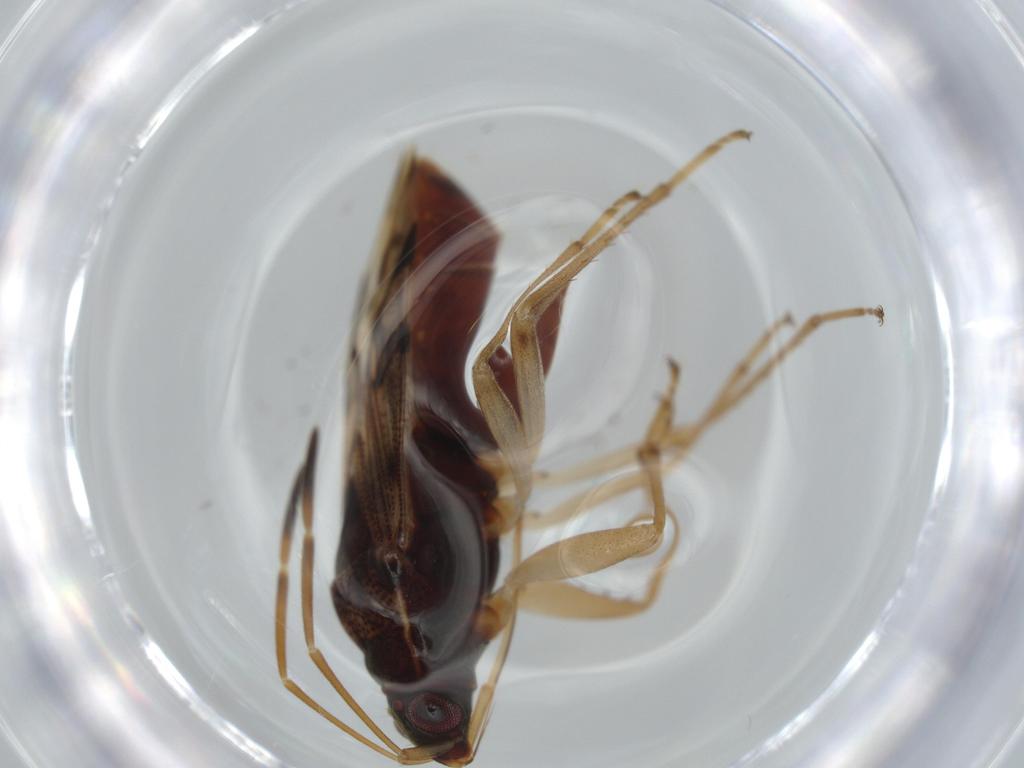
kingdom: Animalia
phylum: Arthropoda
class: Insecta
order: Hemiptera
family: Rhyparochromidae
